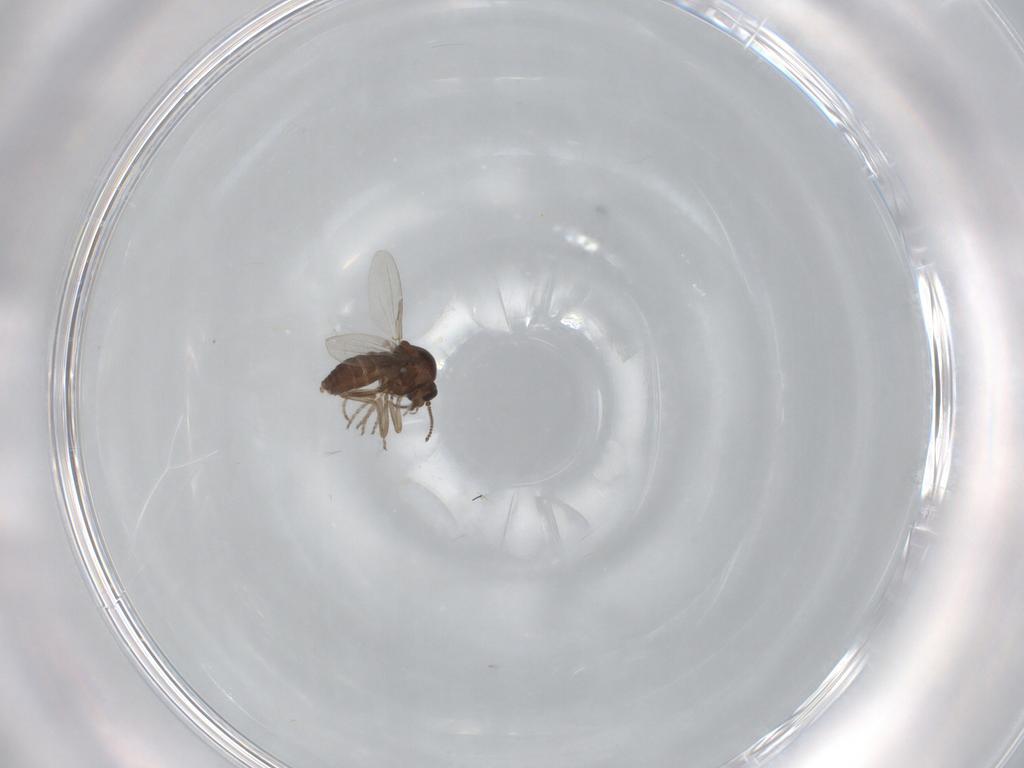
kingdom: Animalia
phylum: Arthropoda
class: Insecta
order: Diptera
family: Ceratopogonidae
